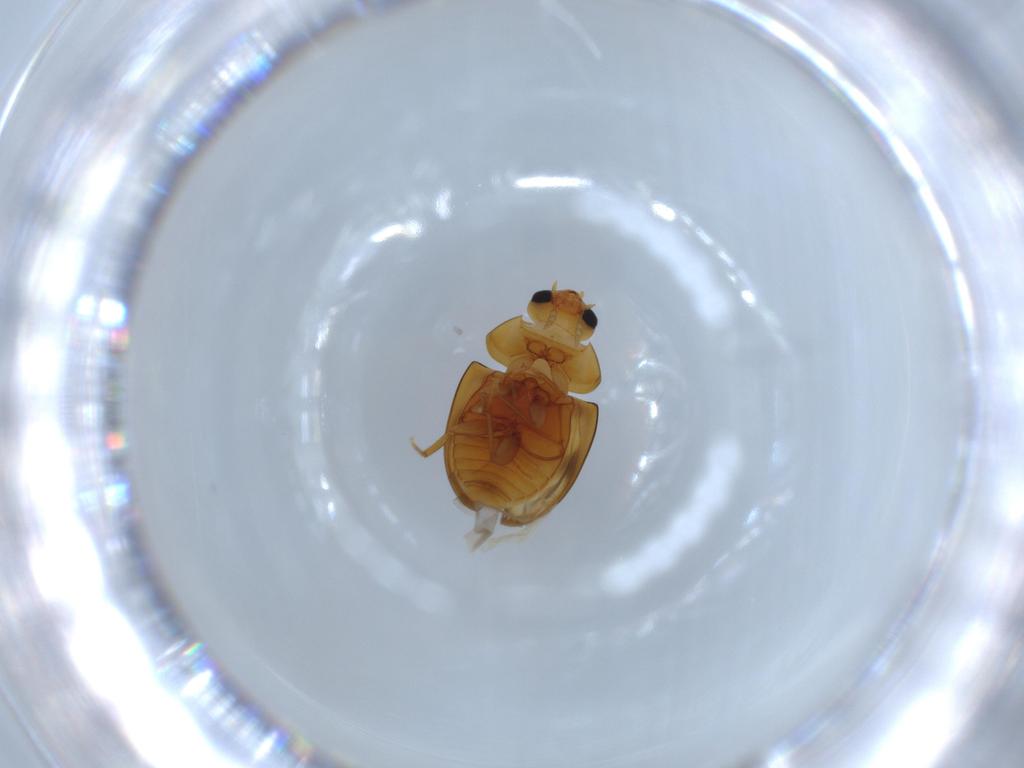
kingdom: Animalia
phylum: Arthropoda
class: Insecta
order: Coleoptera
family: Phalacridae
